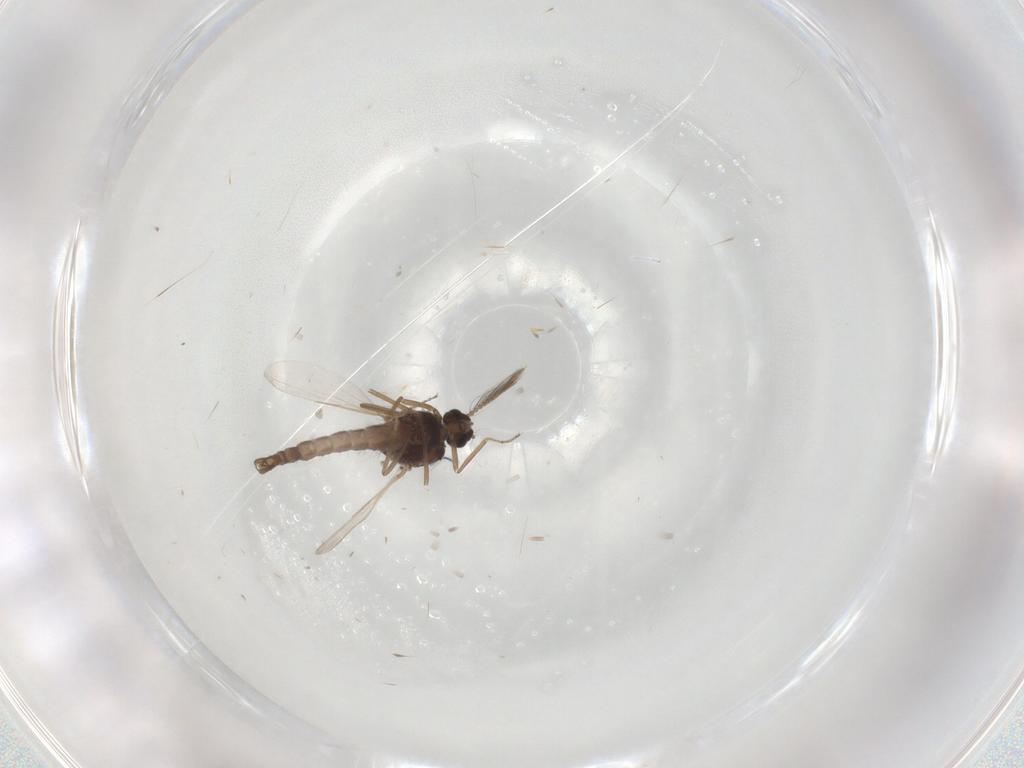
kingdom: Animalia
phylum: Arthropoda
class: Insecta
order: Diptera
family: Ceratopogonidae
